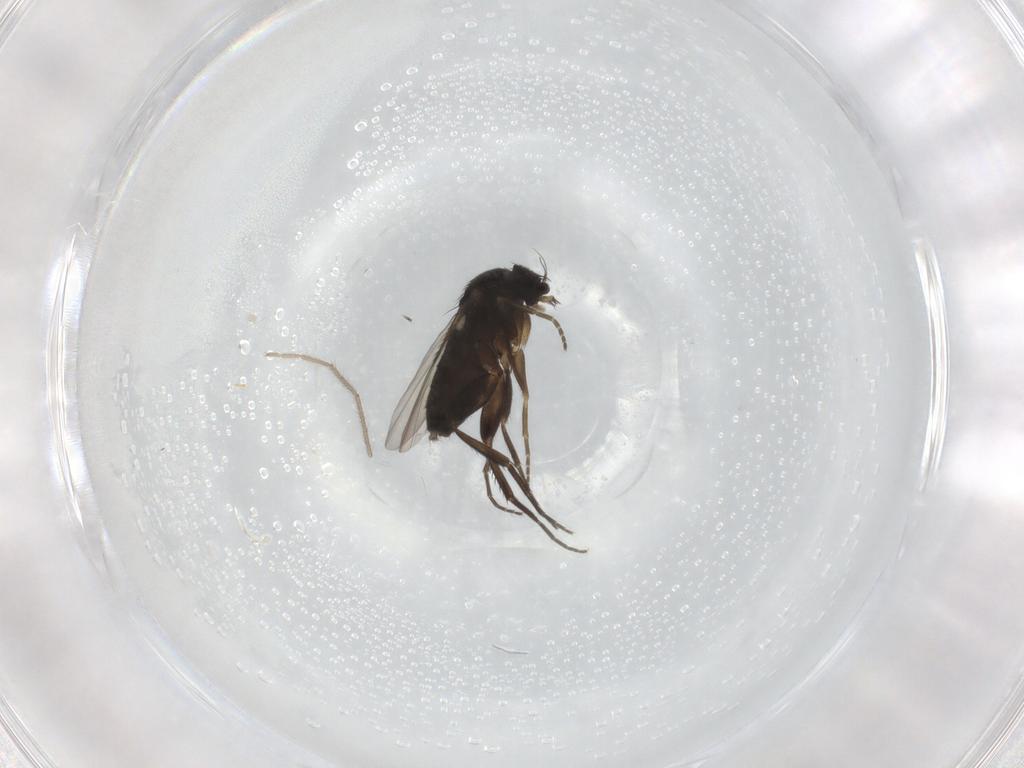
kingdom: Animalia
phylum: Arthropoda
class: Insecta
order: Diptera
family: Phoridae
